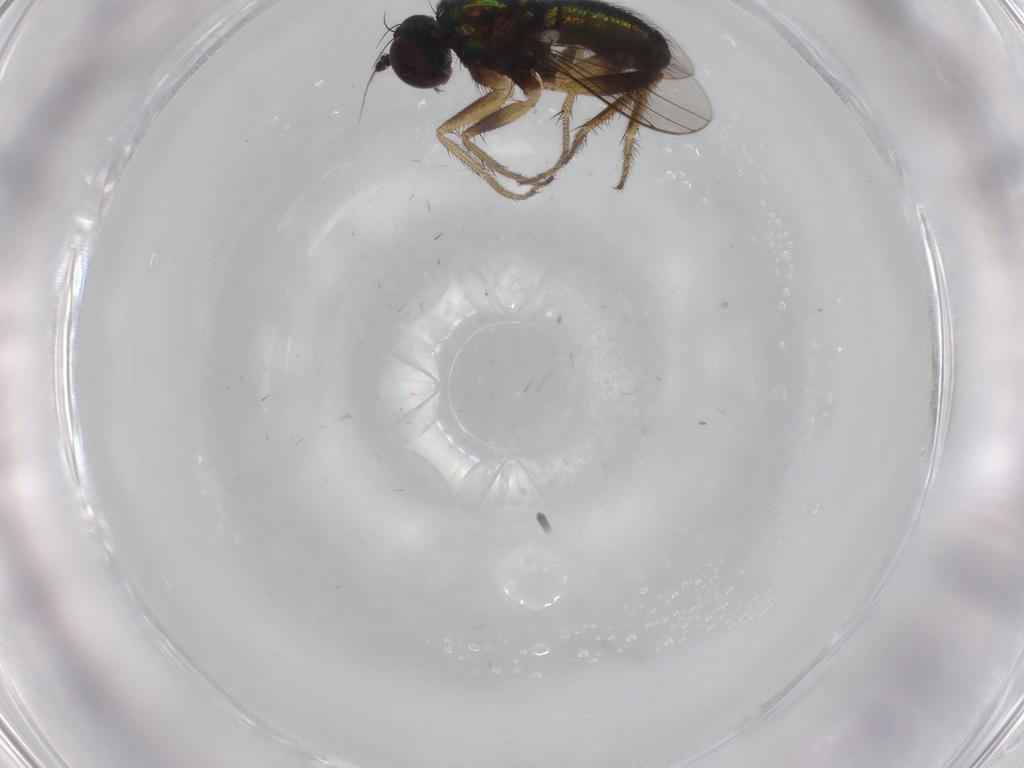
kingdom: Animalia
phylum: Arthropoda
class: Insecta
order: Diptera
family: Dolichopodidae
